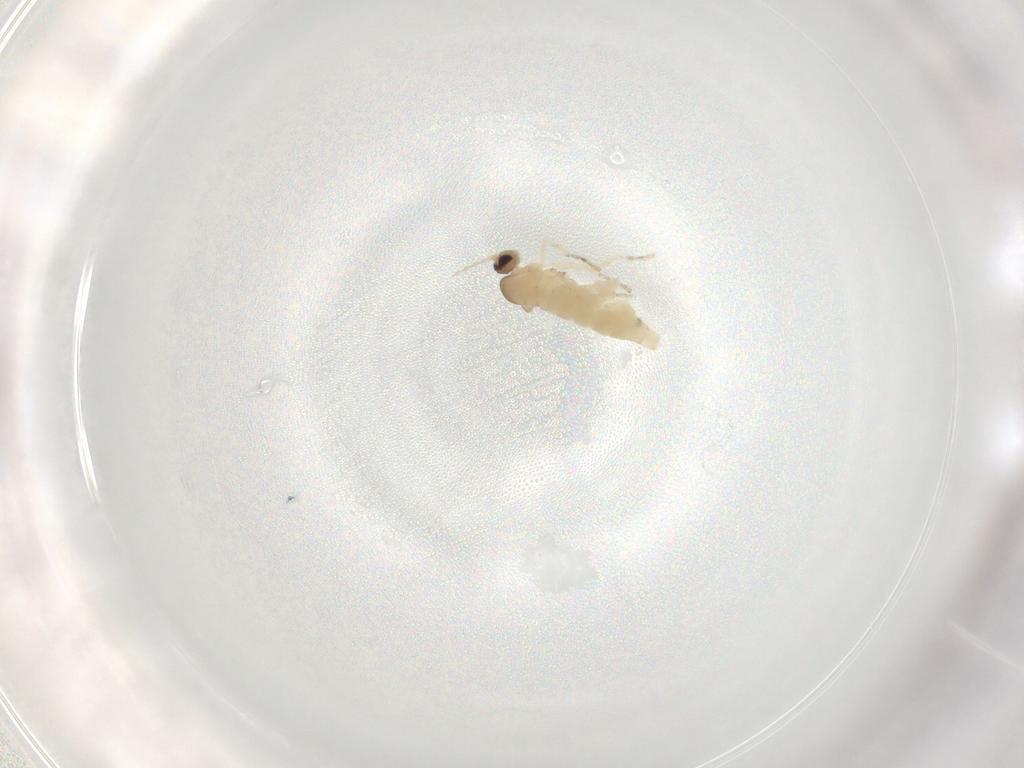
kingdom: Animalia
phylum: Arthropoda
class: Insecta
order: Diptera
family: Cecidomyiidae
